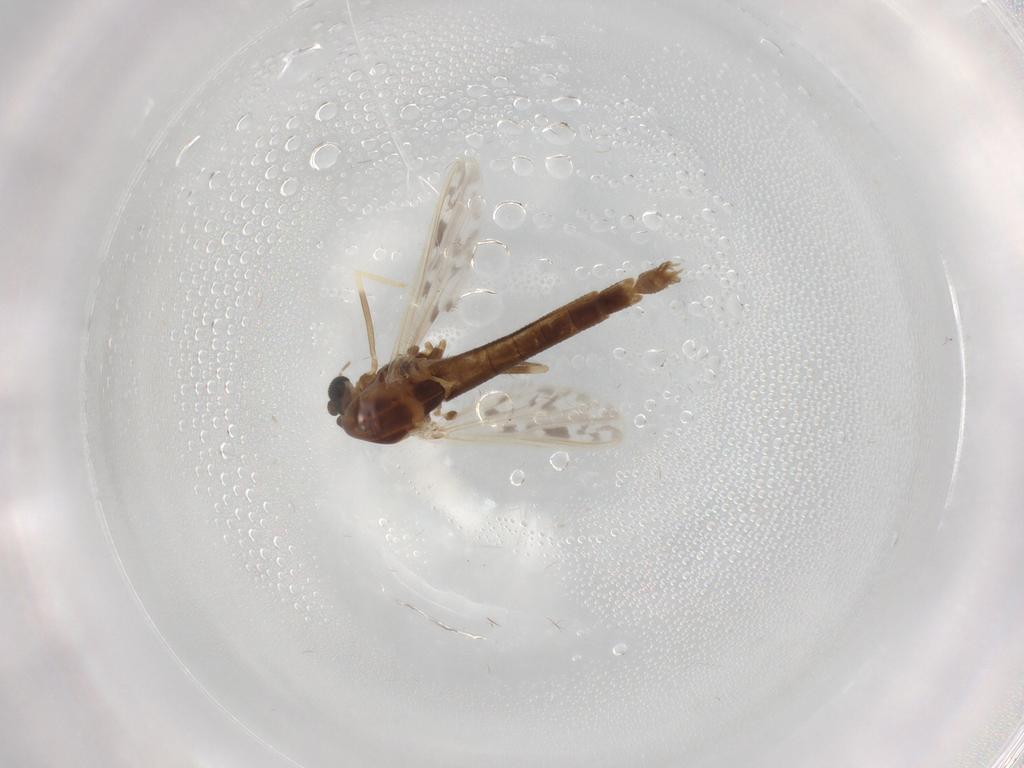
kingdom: Animalia
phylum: Arthropoda
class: Insecta
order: Diptera
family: Chironomidae
